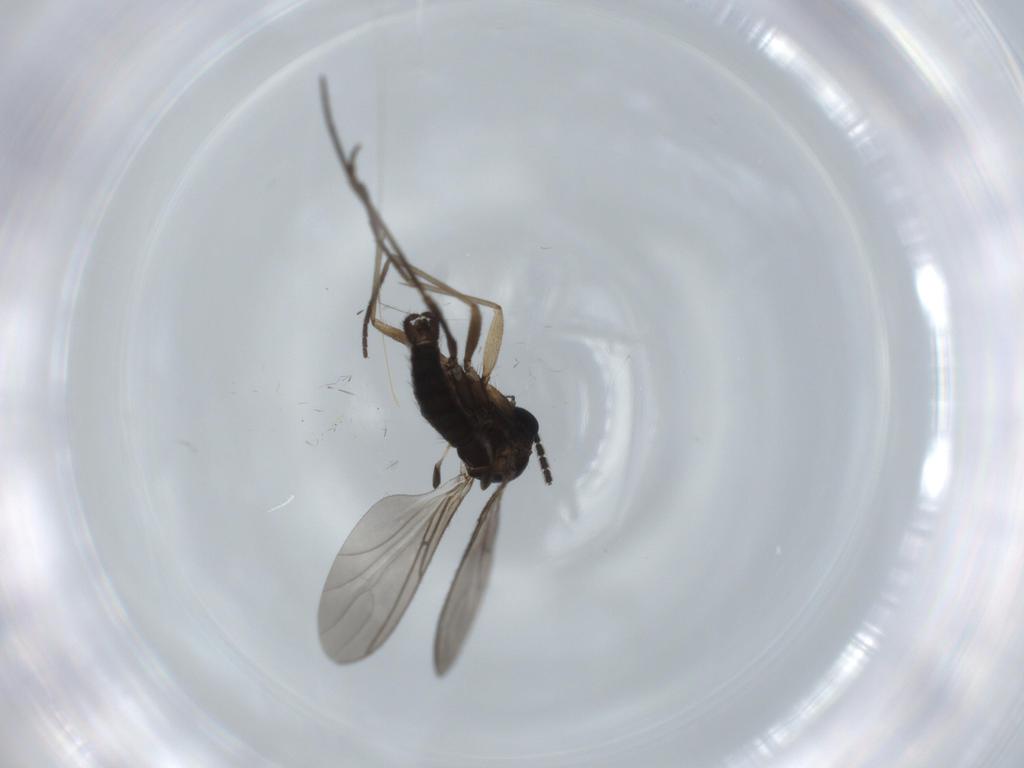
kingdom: Animalia
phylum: Arthropoda
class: Insecta
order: Diptera
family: Sciaridae
